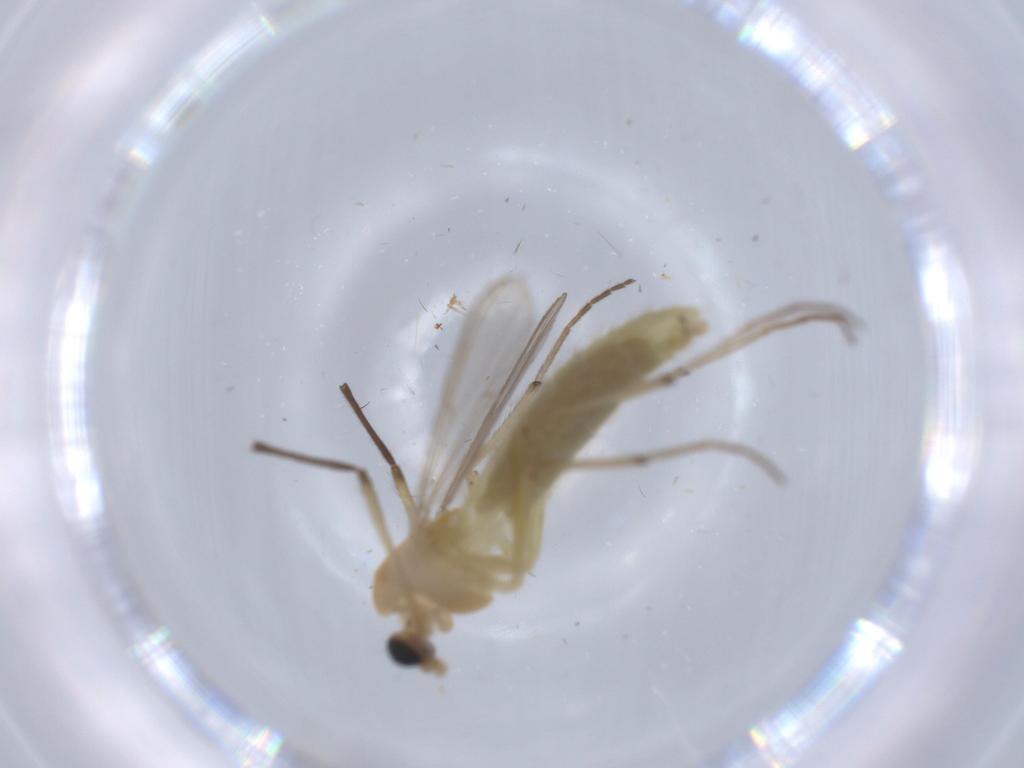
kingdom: Animalia
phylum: Arthropoda
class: Insecta
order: Diptera
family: Chironomidae
